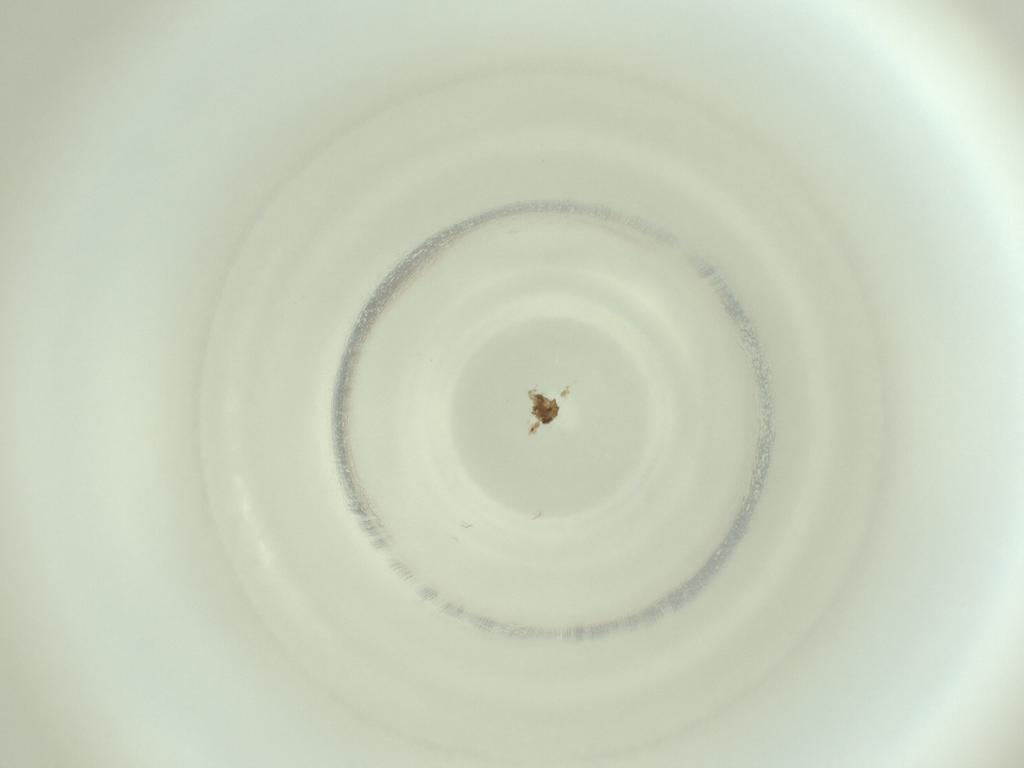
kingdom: Animalia
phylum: Arthropoda
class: Insecta
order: Diptera
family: Cecidomyiidae
